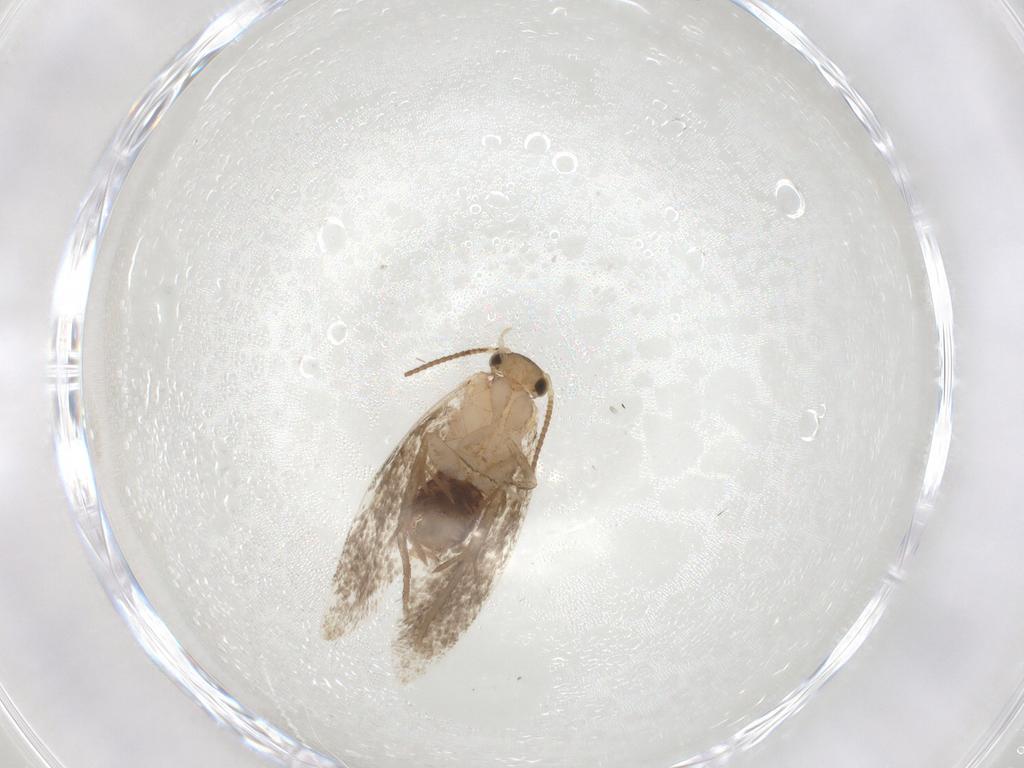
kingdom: Animalia
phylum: Arthropoda
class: Insecta
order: Lepidoptera
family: Dryadaulidae
